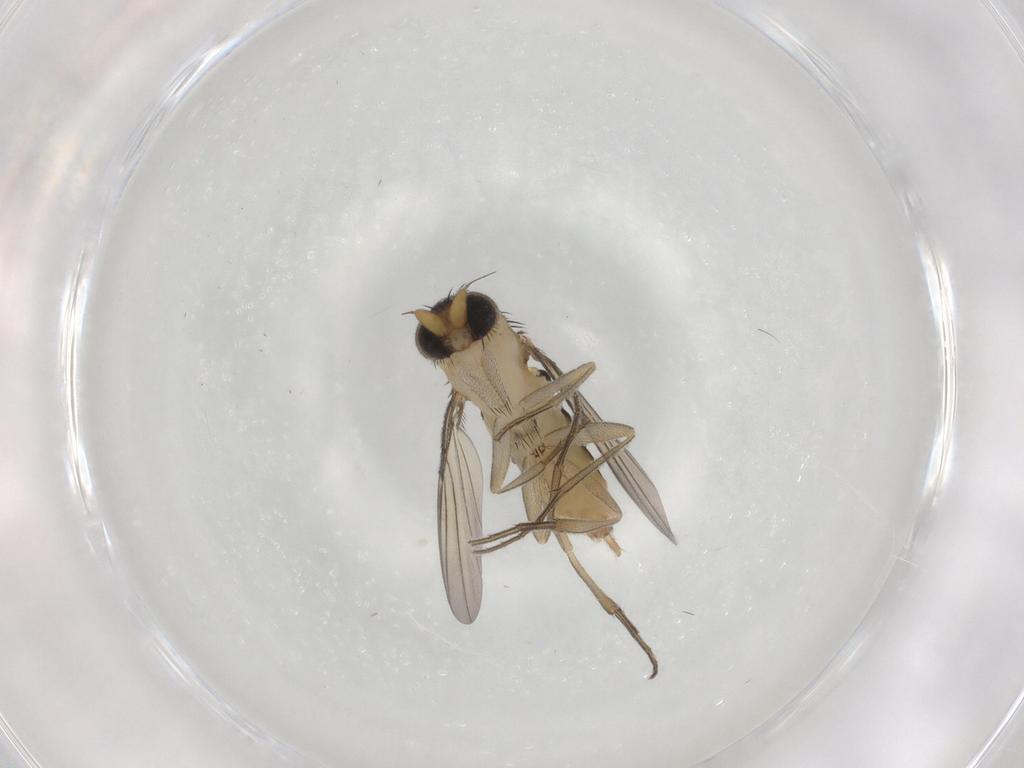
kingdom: Animalia
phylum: Arthropoda
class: Insecta
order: Diptera
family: Phoridae
